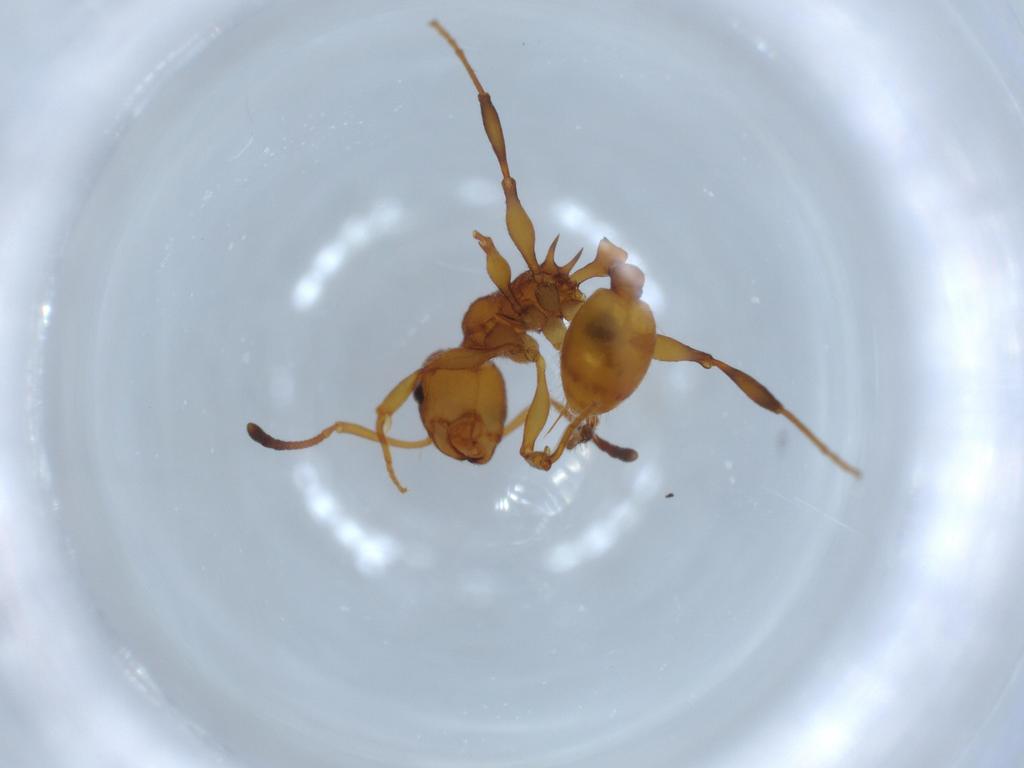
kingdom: Animalia
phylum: Arthropoda
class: Insecta
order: Hymenoptera
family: Formicidae
